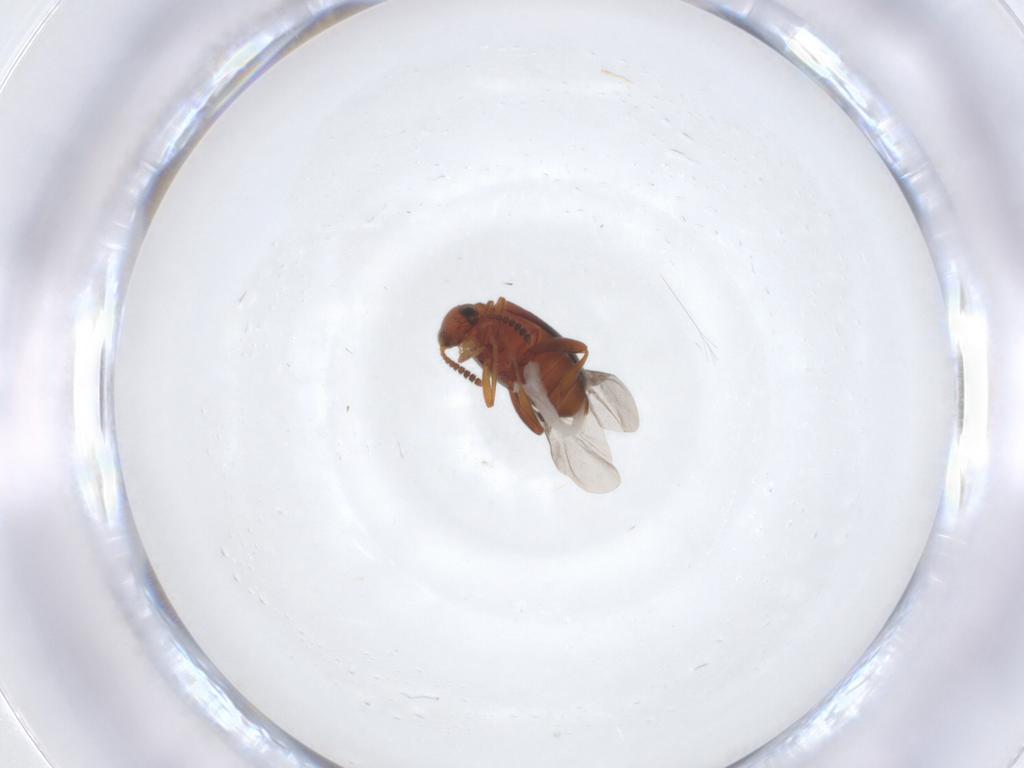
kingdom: Animalia
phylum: Arthropoda
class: Insecta
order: Coleoptera
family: Aderidae
